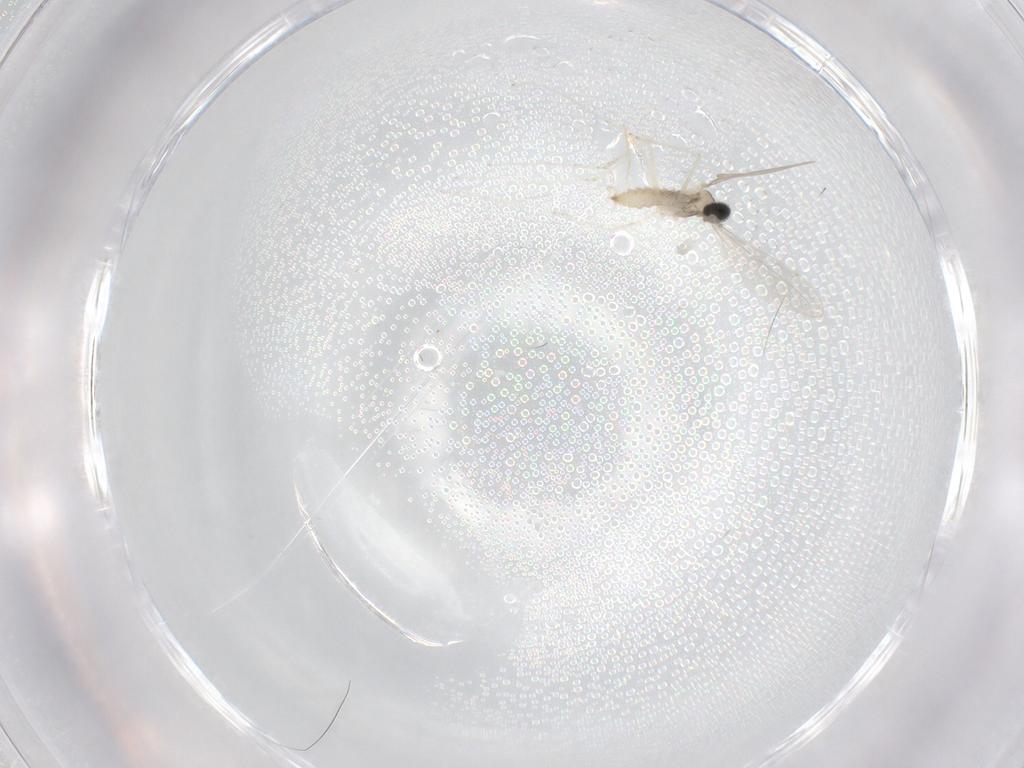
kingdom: Animalia
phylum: Arthropoda
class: Insecta
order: Diptera
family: Cecidomyiidae
